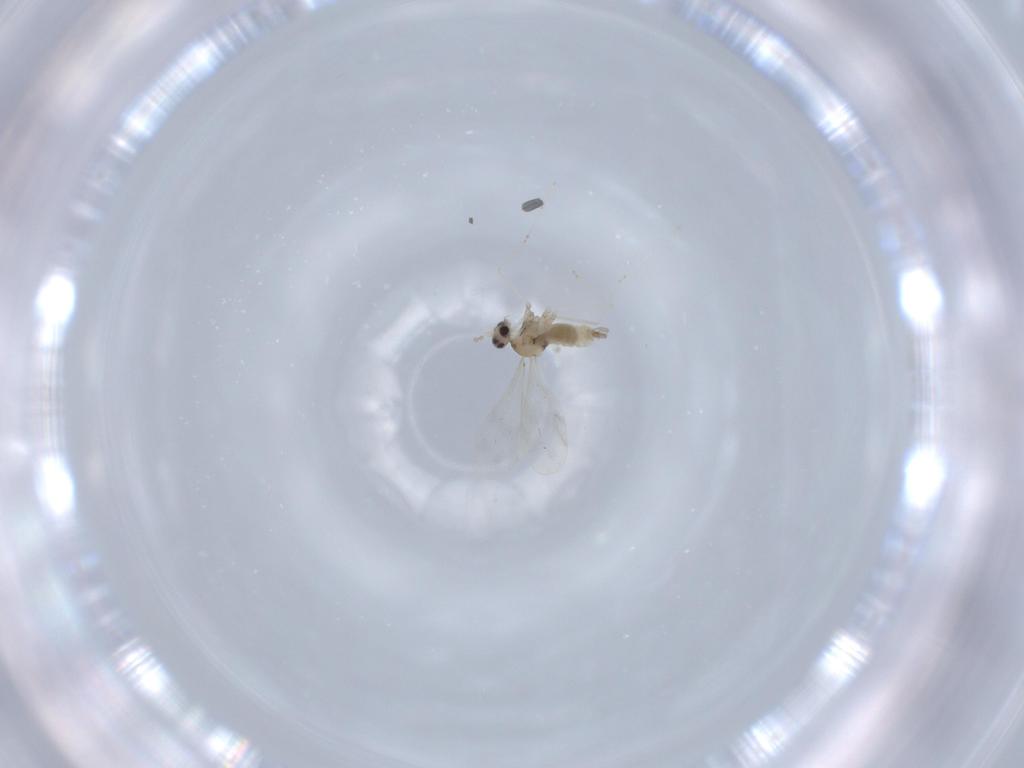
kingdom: Animalia
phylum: Arthropoda
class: Insecta
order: Diptera
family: Cecidomyiidae
